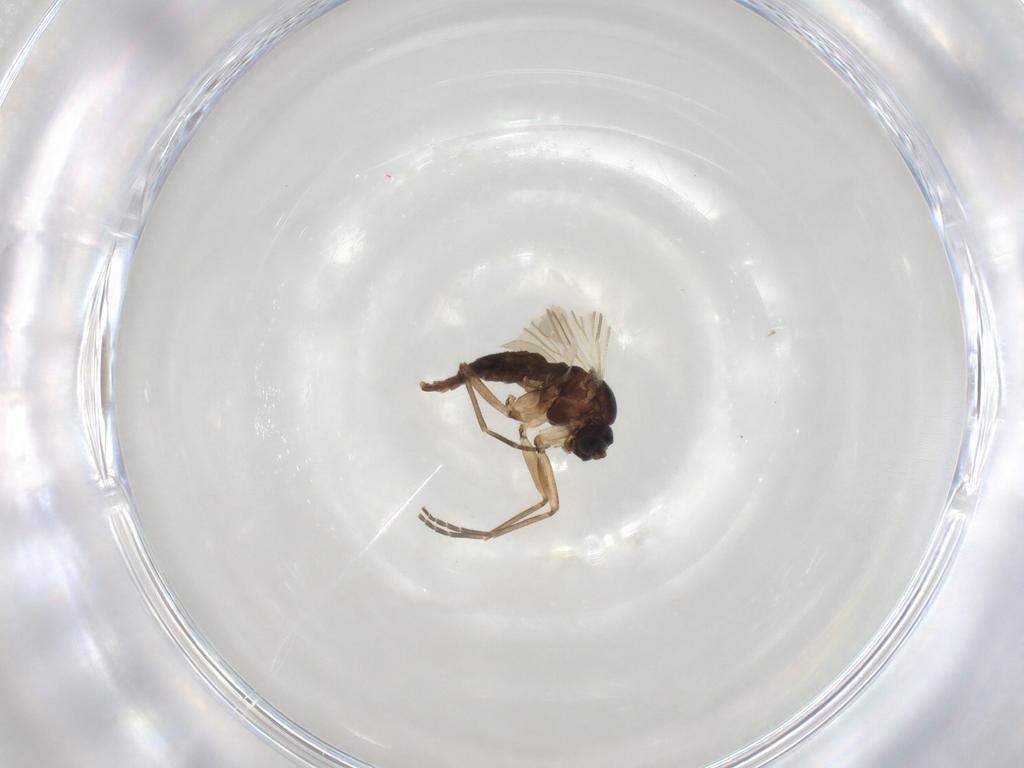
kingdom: Animalia
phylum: Arthropoda
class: Insecta
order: Diptera
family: Sciaridae
